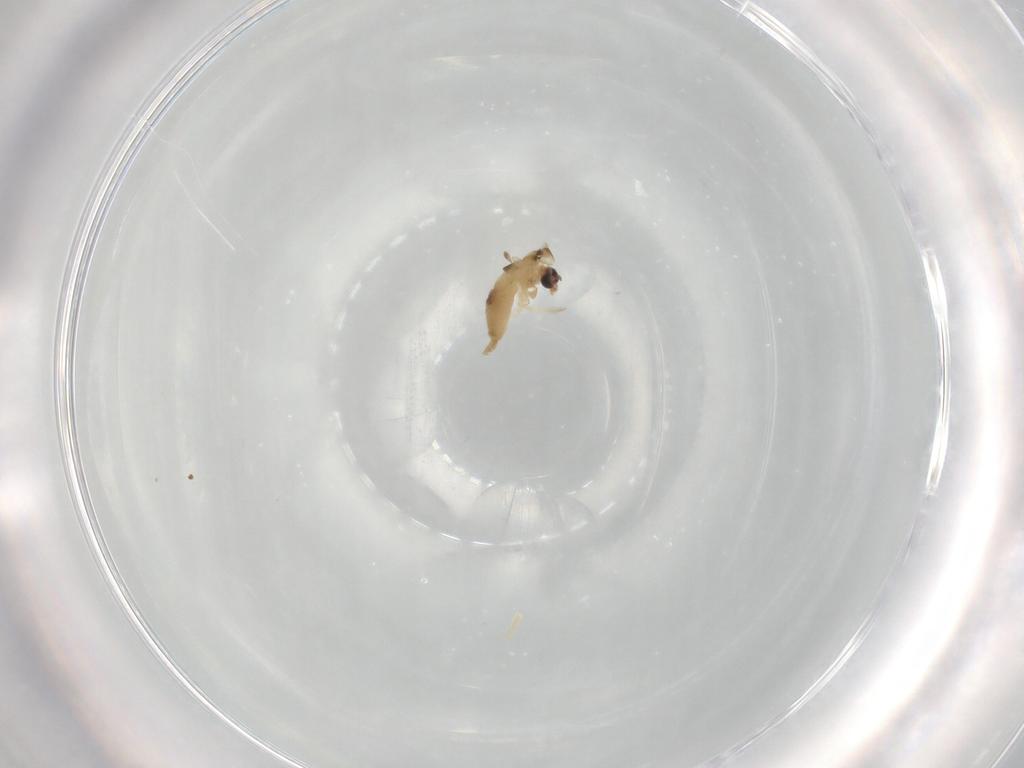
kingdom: Animalia
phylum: Arthropoda
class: Insecta
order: Diptera
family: Chironomidae
